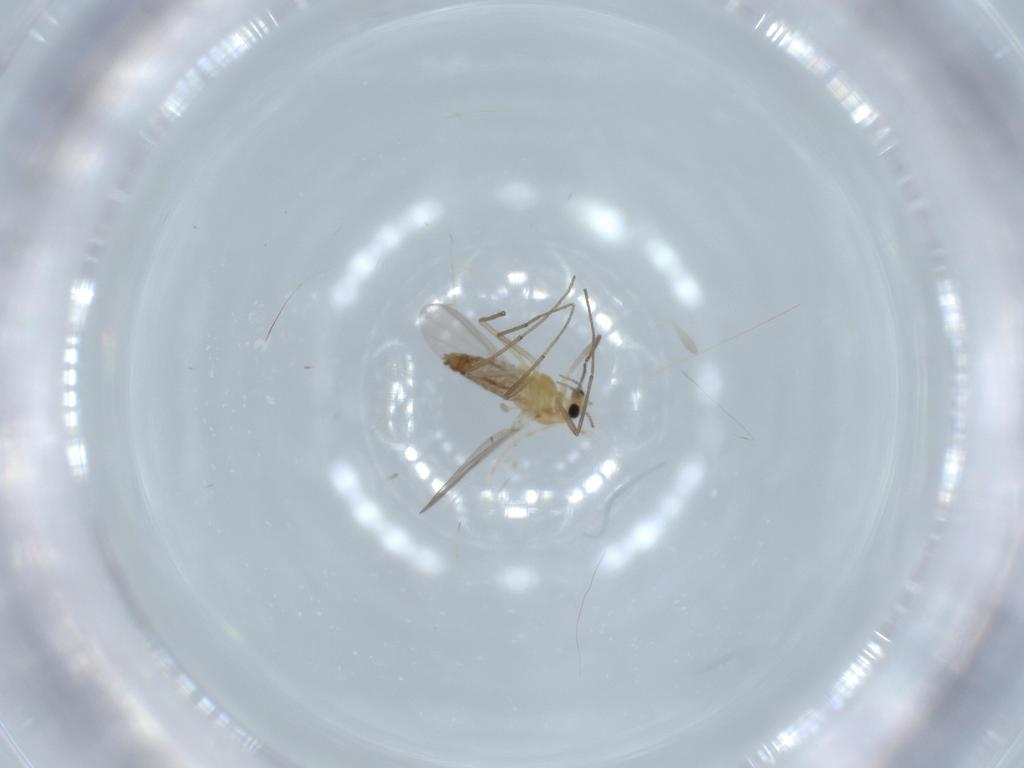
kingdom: Animalia
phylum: Arthropoda
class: Insecta
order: Diptera
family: Chironomidae
